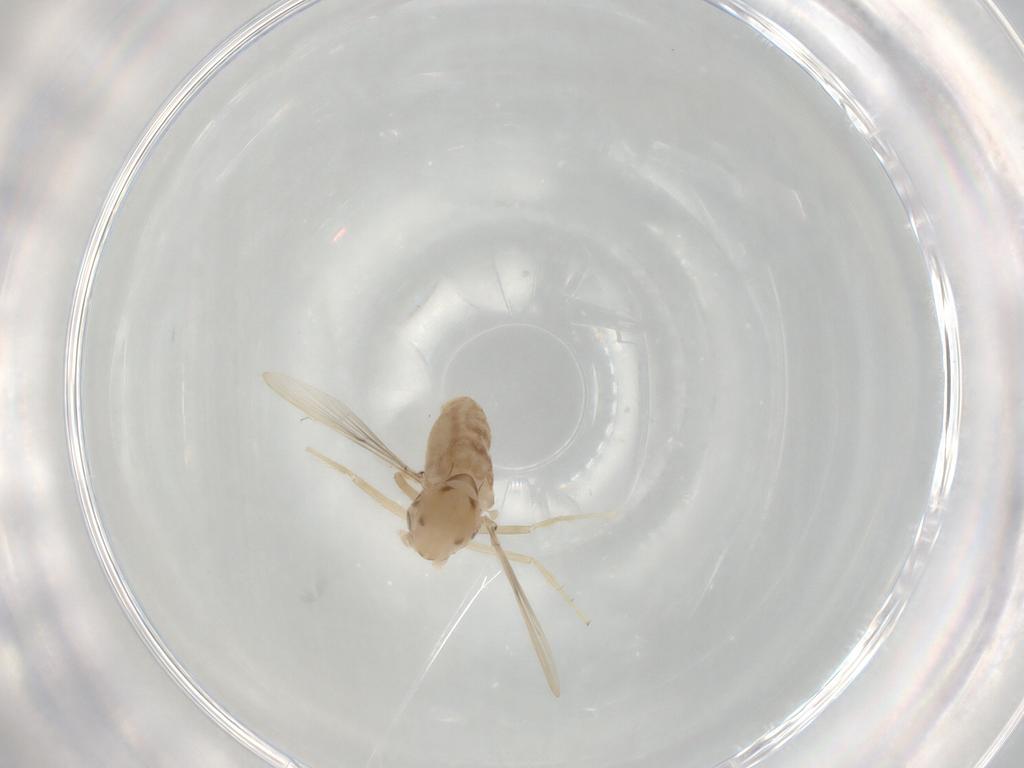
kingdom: Animalia
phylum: Arthropoda
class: Insecta
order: Diptera
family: Chironomidae
